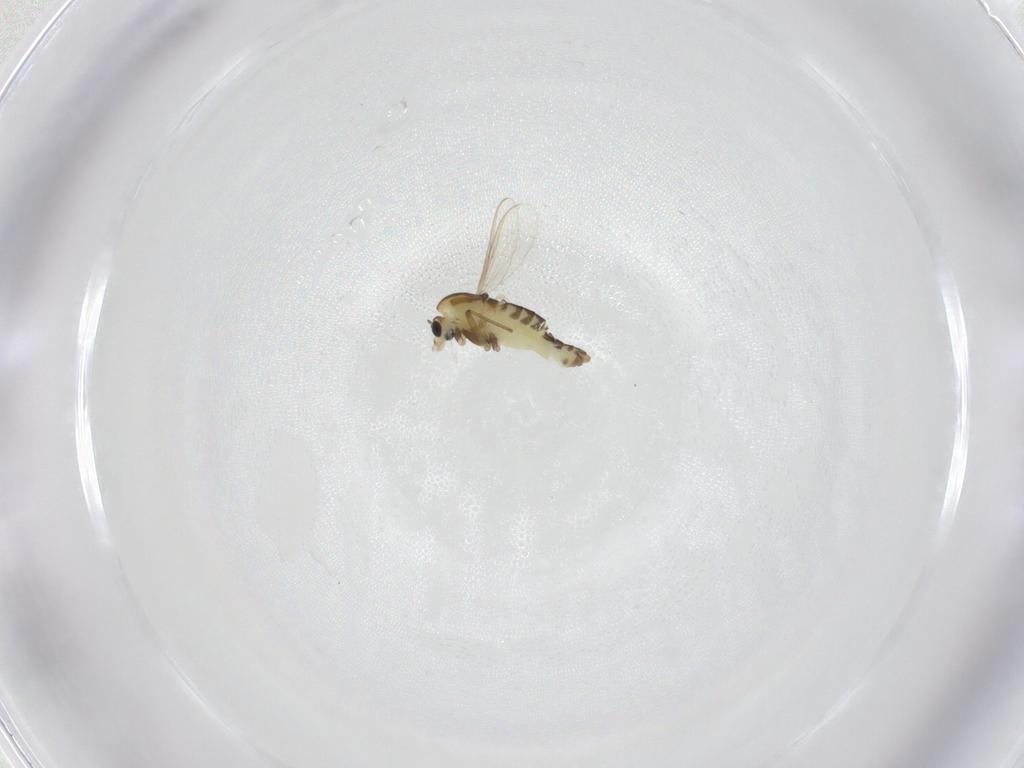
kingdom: Animalia
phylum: Arthropoda
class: Insecta
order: Diptera
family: Chironomidae
